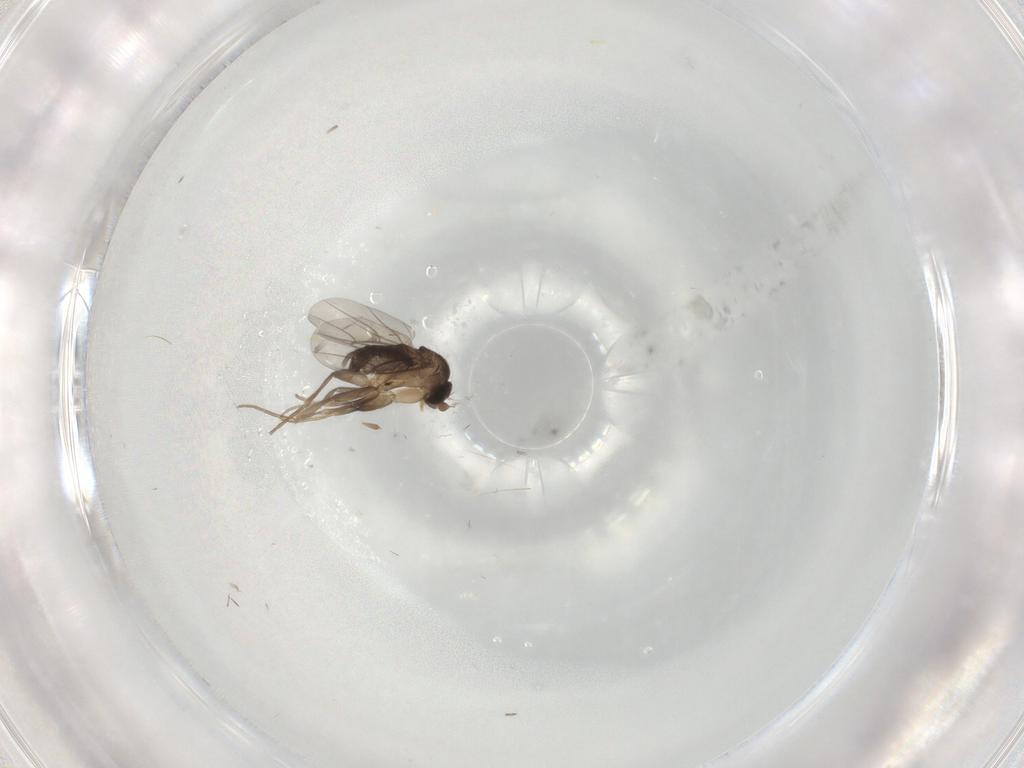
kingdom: Animalia
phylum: Arthropoda
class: Insecta
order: Diptera
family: Phoridae
